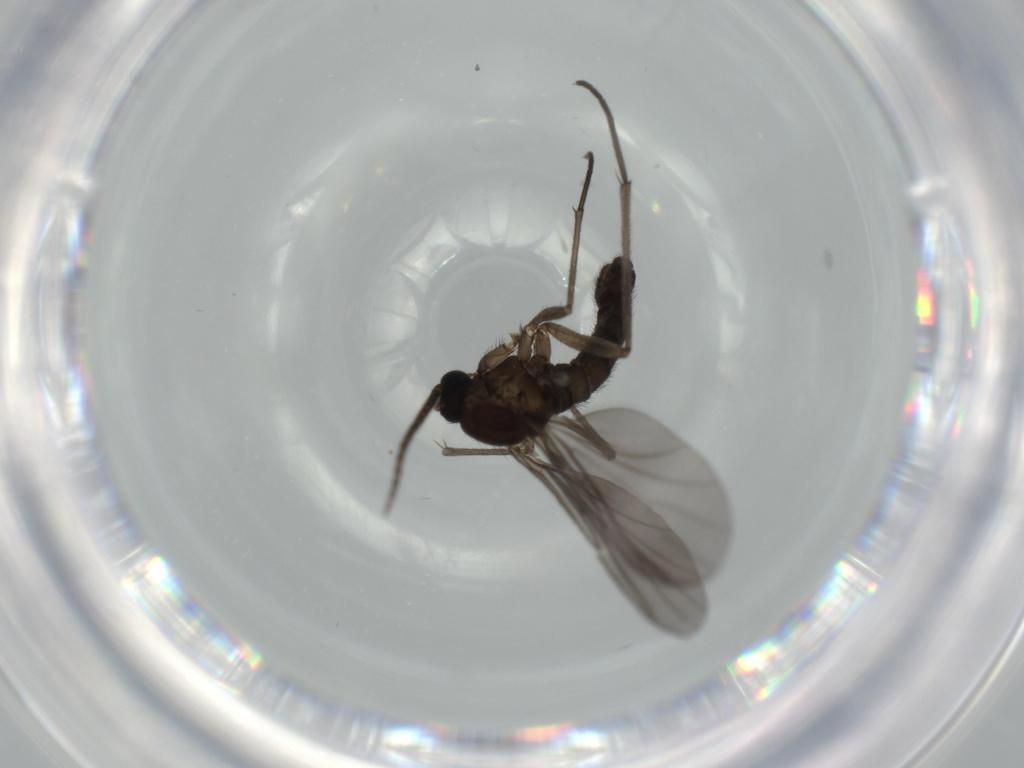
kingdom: Animalia
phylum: Arthropoda
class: Insecta
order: Diptera
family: Sciaridae
